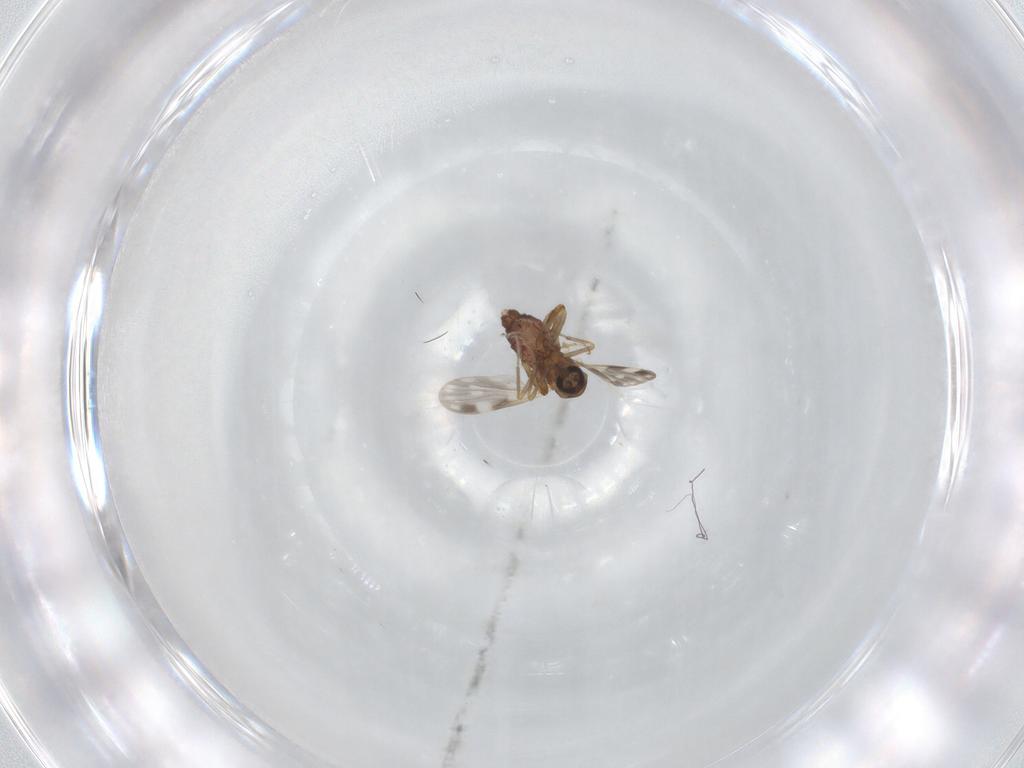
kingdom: Animalia
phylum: Arthropoda
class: Insecta
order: Diptera
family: Ceratopogonidae
